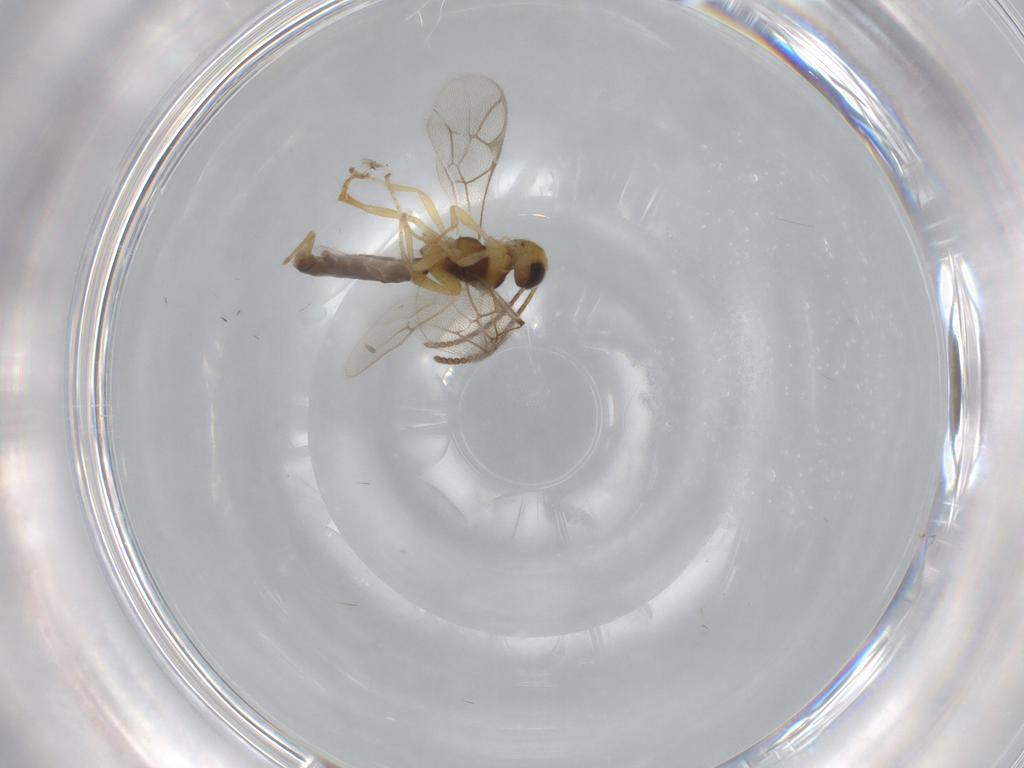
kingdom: Animalia
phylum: Arthropoda
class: Insecta
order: Hymenoptera
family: Ichneumonidae
